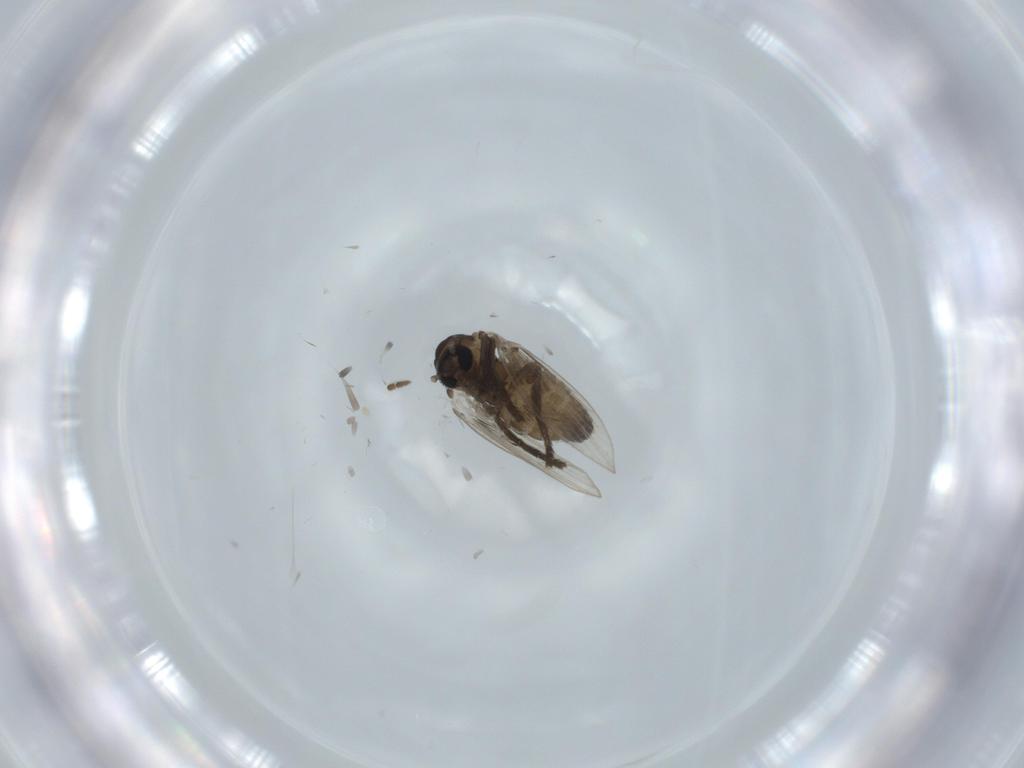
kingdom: Animalia
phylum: Arthropoda
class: Insecta
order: Diptera
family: Psychodidae
